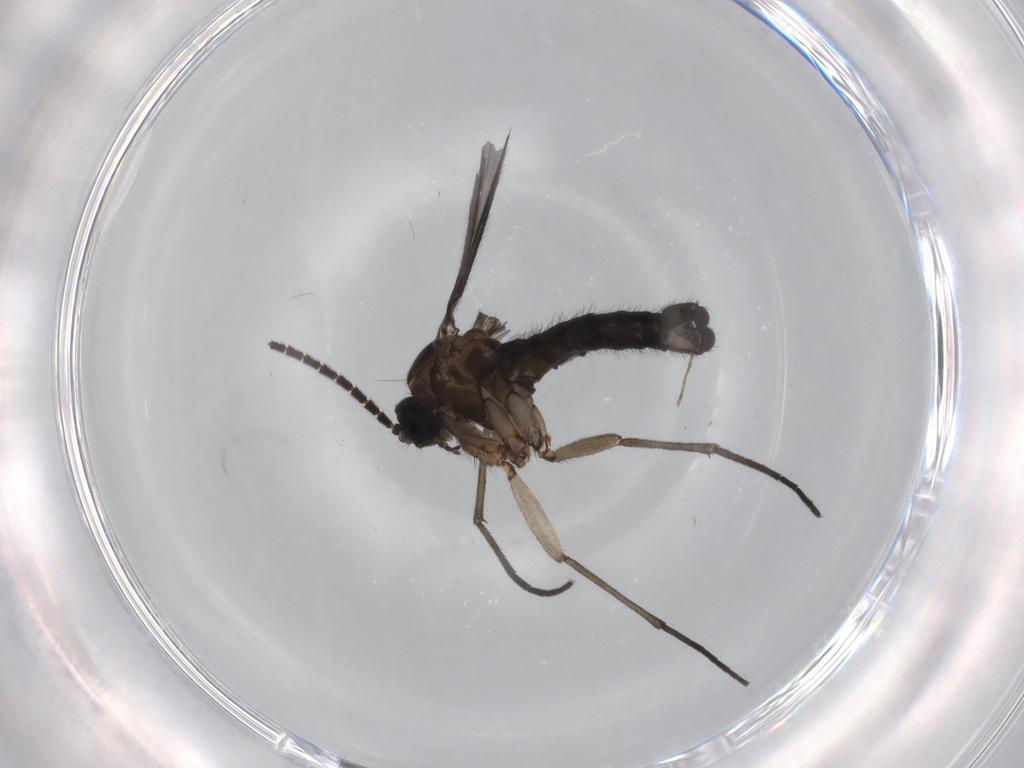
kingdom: Animalia
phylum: Arthropoda
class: Insecta
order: Diptera
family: Sciaridae
